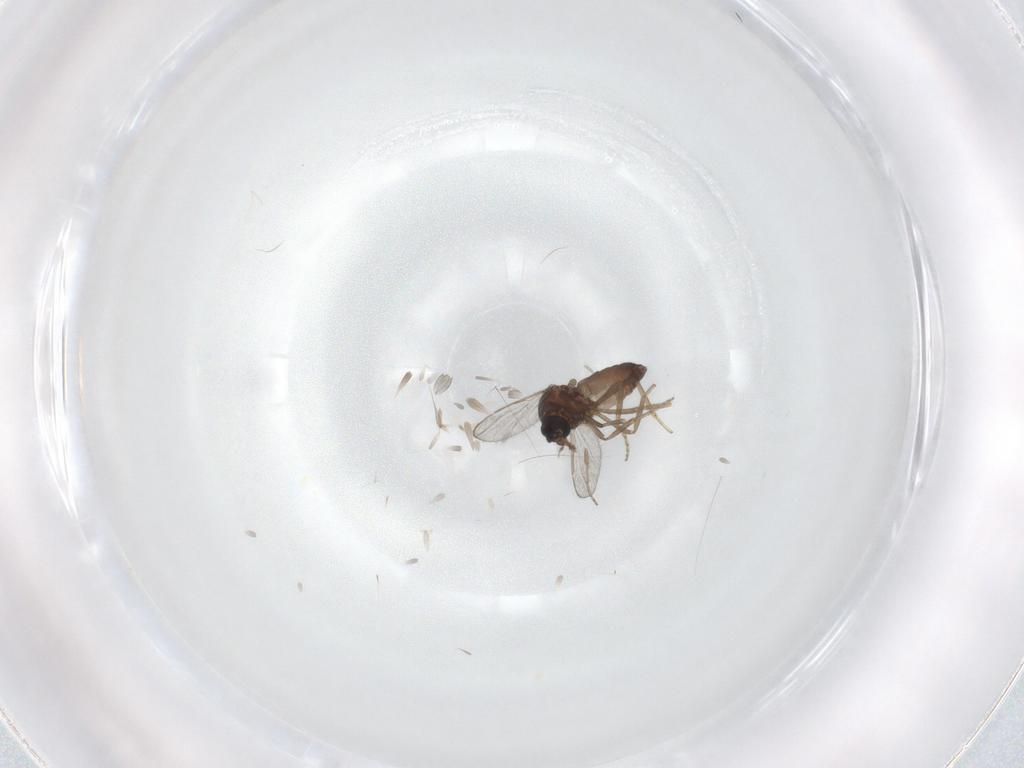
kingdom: Animalia
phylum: Arthropoda
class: Insecta
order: Diptera
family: Ceratopogonidae
